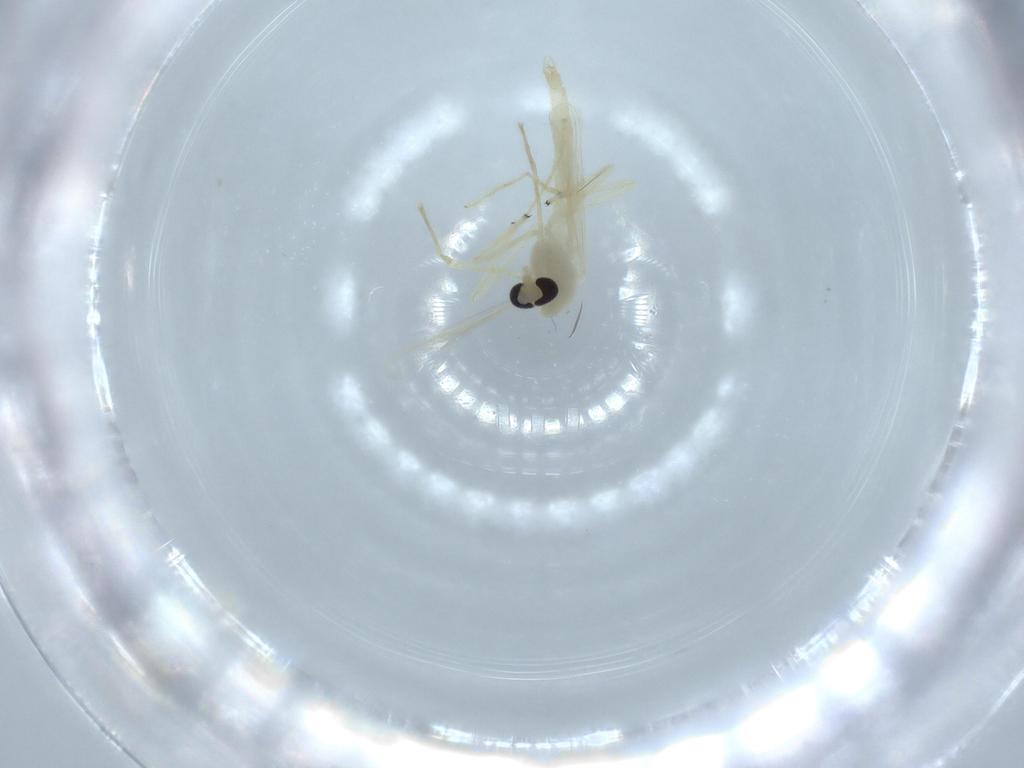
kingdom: Animalia
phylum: Arthropoda
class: Insecta
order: Diptera
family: Chironomidae
